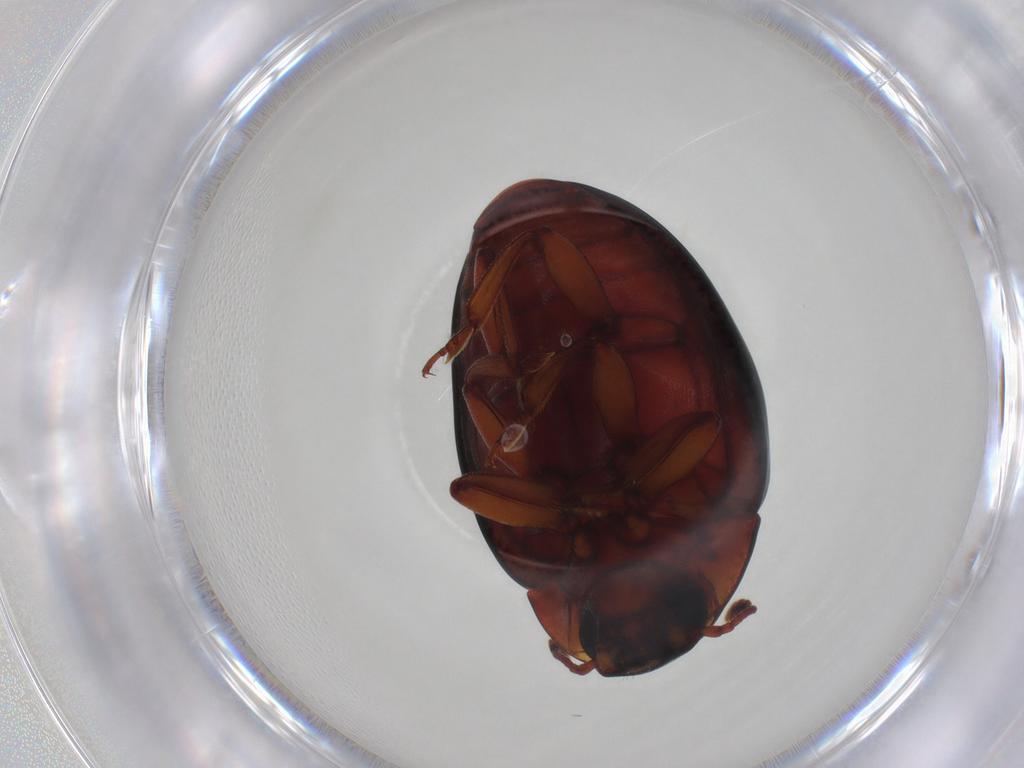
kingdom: Animalia
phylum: Arthropoda
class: Insecta
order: Coleoptera
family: Zopheridae
